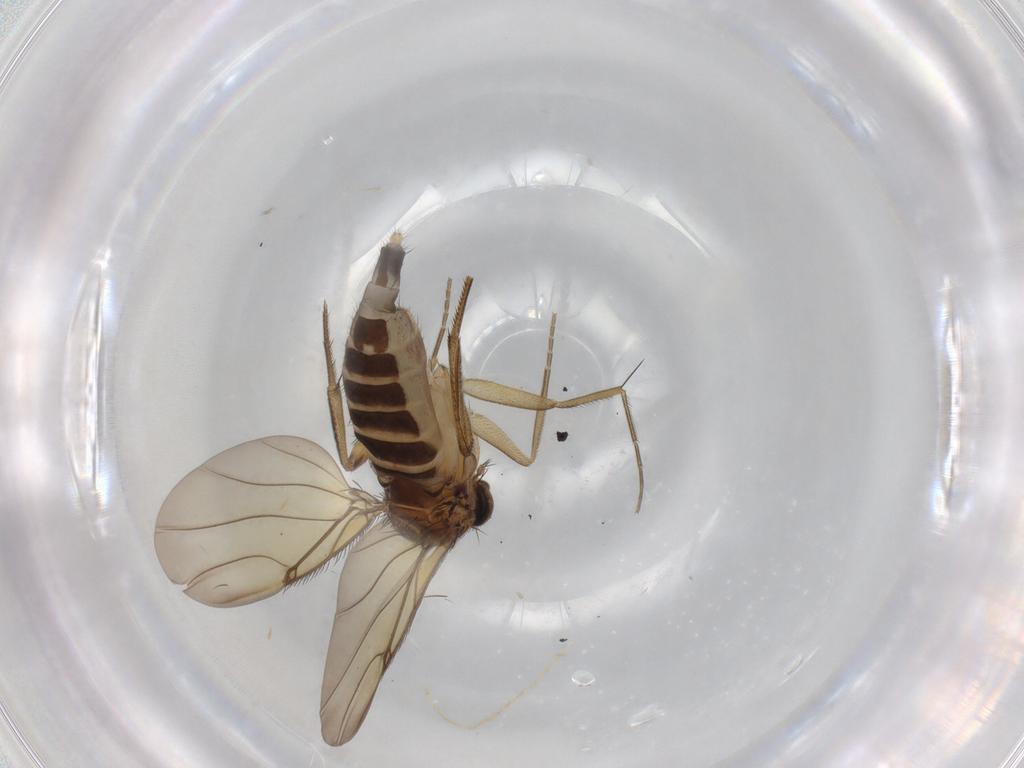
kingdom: Animalia
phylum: Arthropoda
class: Insecta
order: Diptera
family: Phoridae
